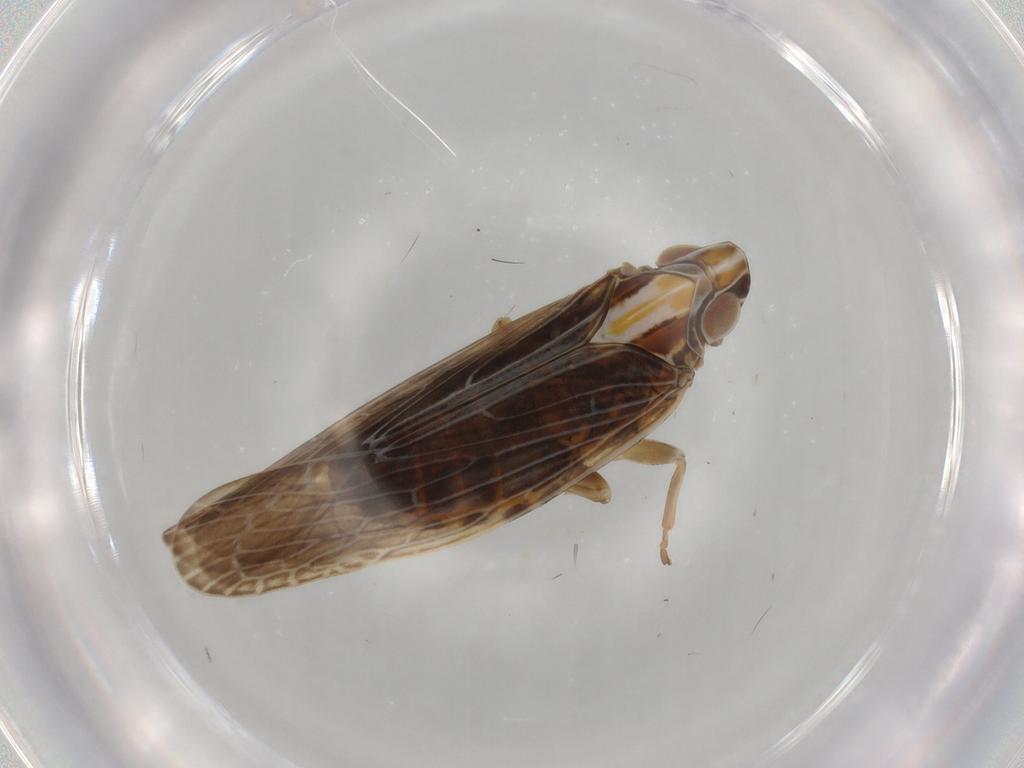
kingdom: Animalia
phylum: Arthropoda
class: Insecta
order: Hemiptera
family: Achilidae
